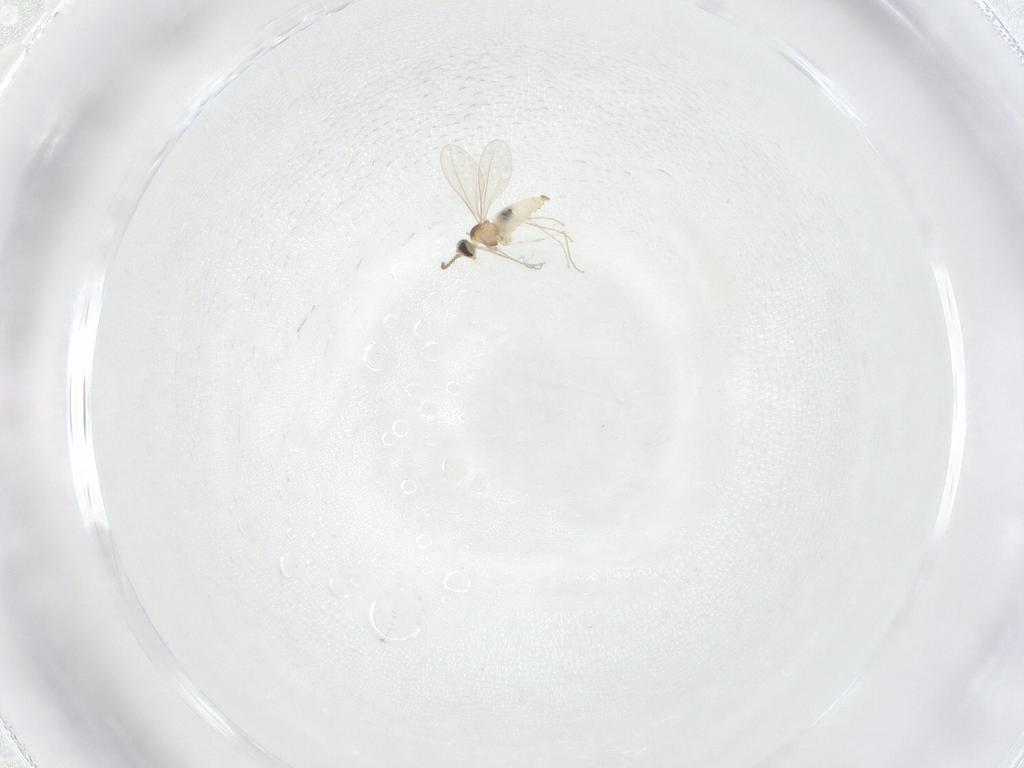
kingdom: Animalia
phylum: Arthropoda
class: Insecta
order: Diptera
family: Cecidomyiidae
